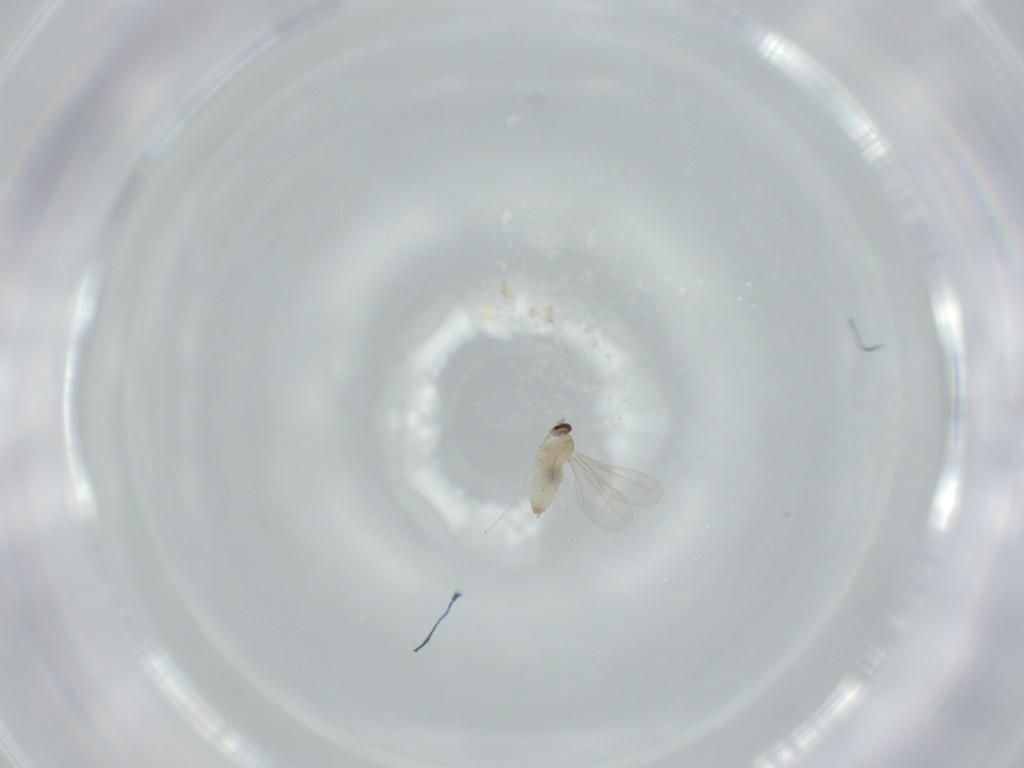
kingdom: Animalia
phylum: Arthropoda
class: Insecta
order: Diptera
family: Cecidomyiidae
